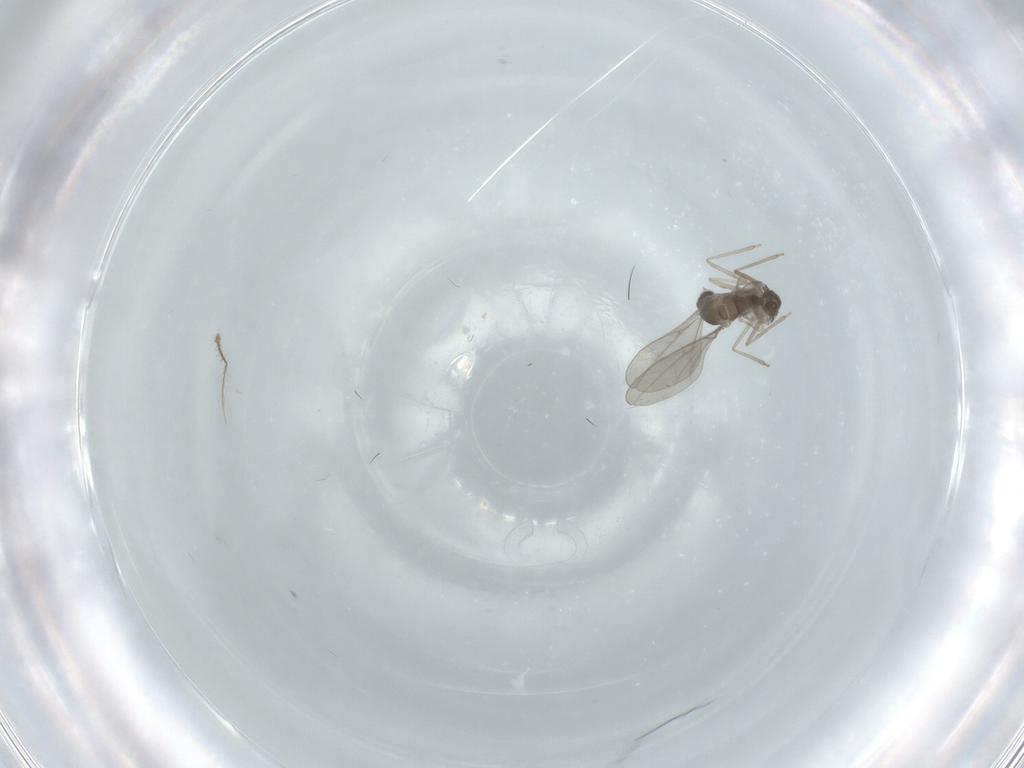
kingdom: Animalia
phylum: Arthropoda
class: Insecta
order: Diptera
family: Cecidomyiidae
